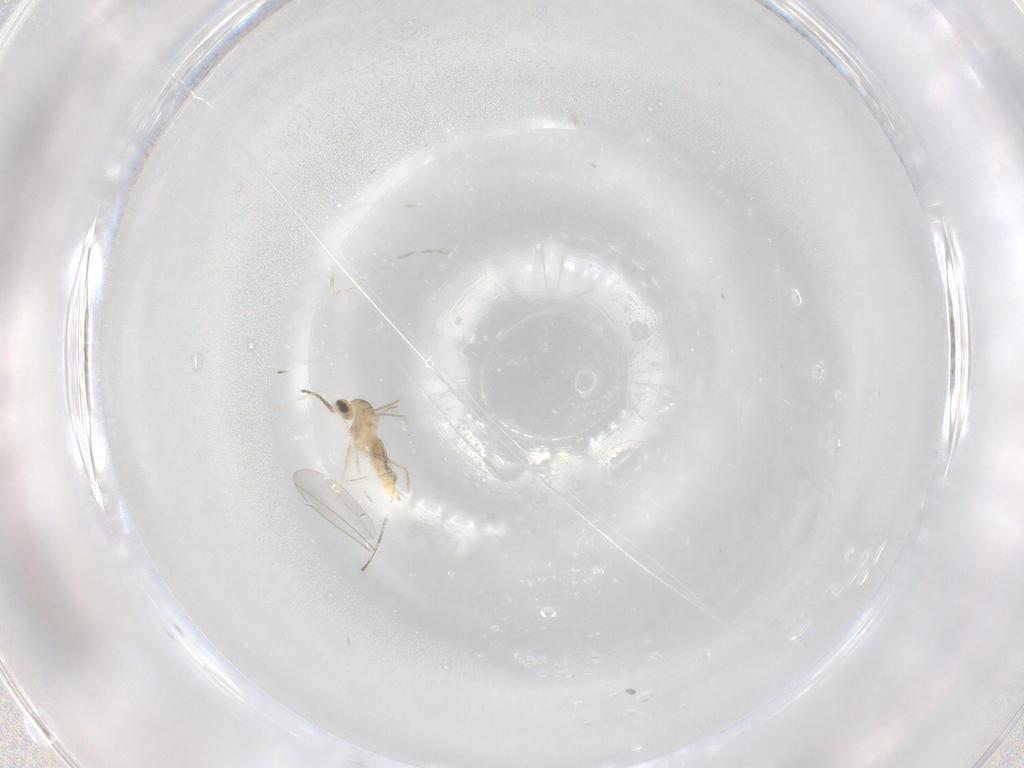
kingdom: Animalia
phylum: Arthropoda
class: Insecta
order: Diptera
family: Cecidomyiidae
